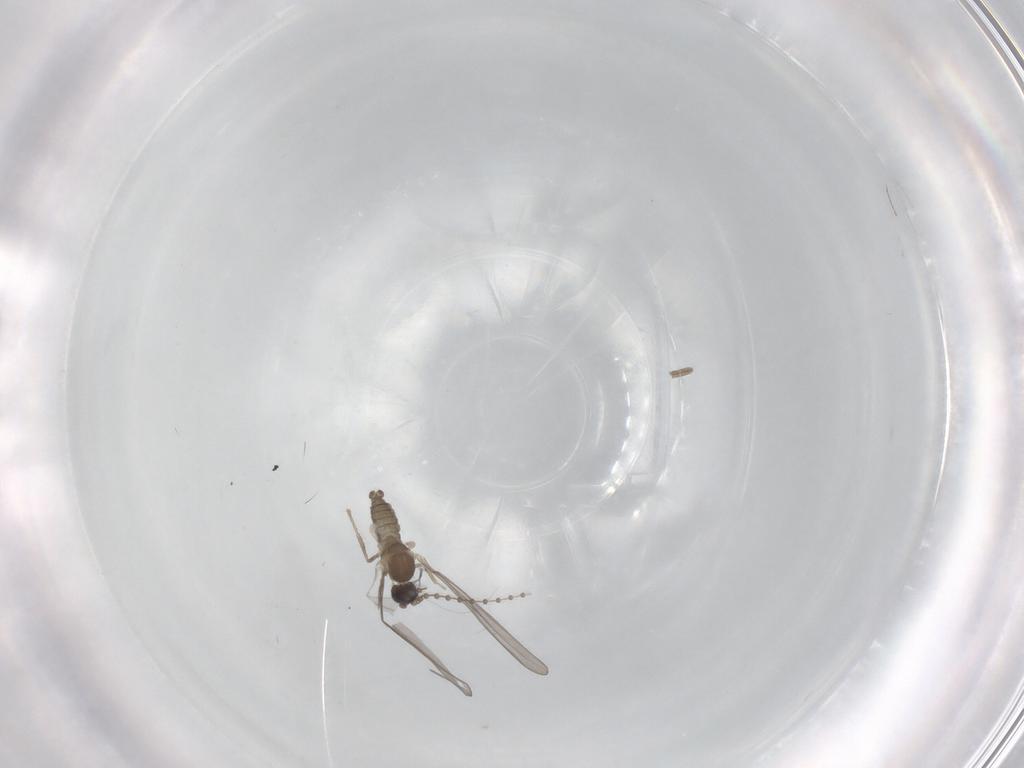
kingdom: Animalia
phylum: Arthropoda
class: Insecta
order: Diptera
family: Cecidomyiidae
